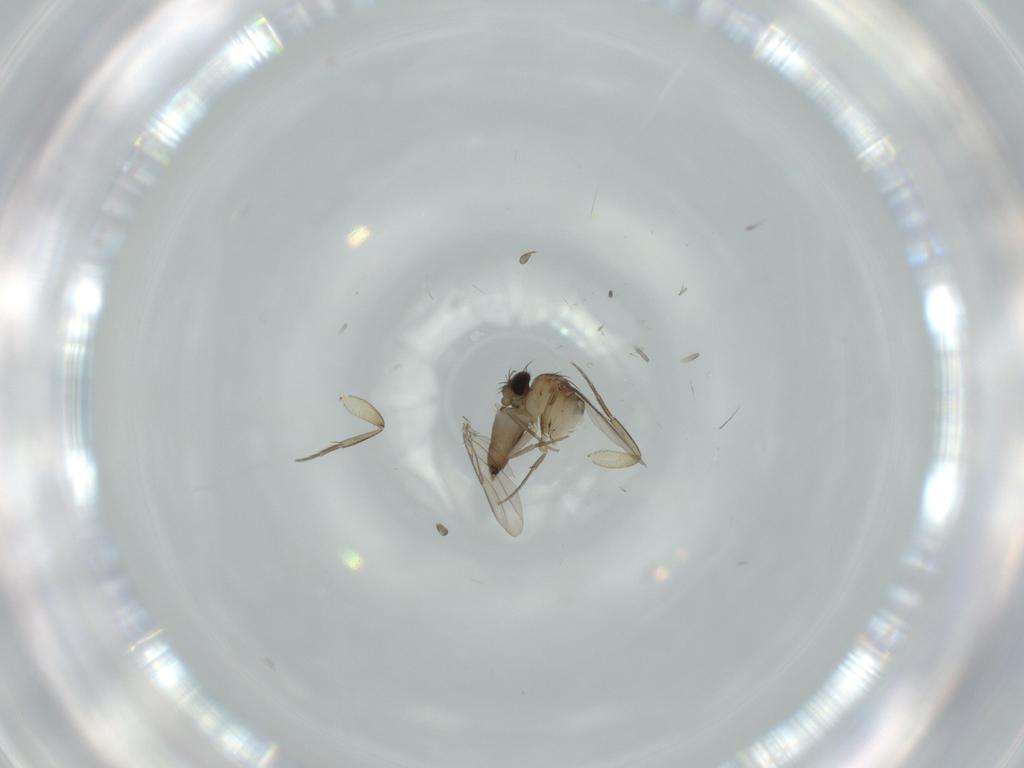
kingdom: Animalia
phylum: Arthropoda
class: Insecta
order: Diptera
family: Phoridae
